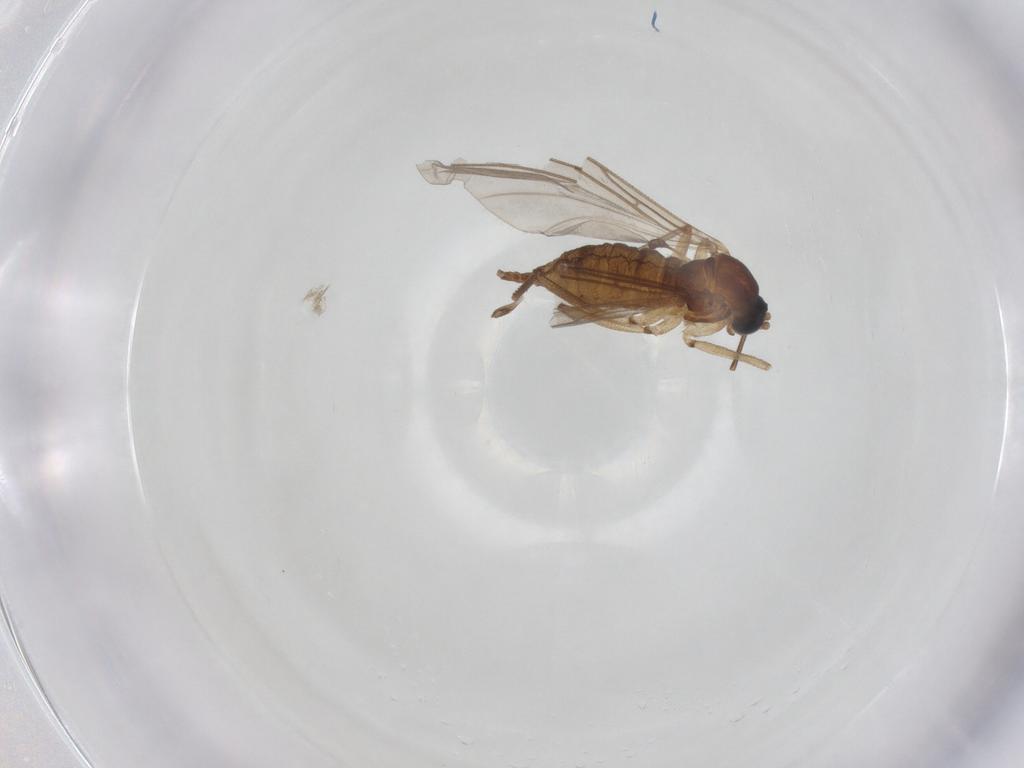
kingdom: Animalia
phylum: Arthropoda
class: Insecta
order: Diptera
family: Sciaridae
